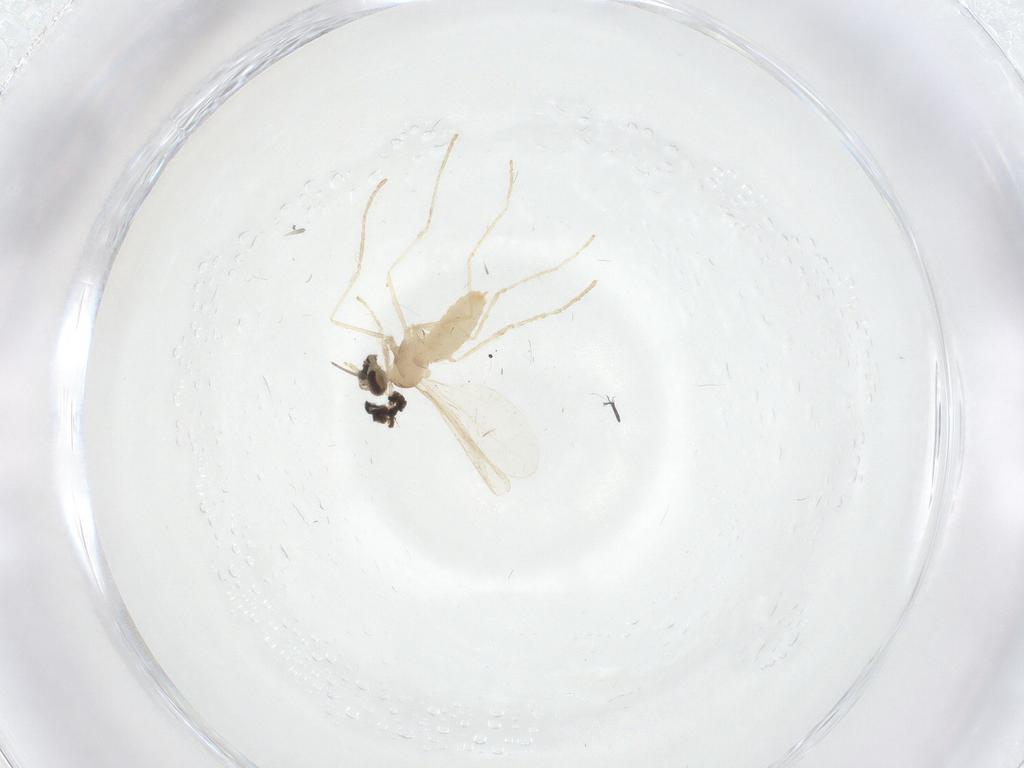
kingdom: Animalia
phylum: Arthropoda
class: Insecta
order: Diptera
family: Cecidomyiidae
